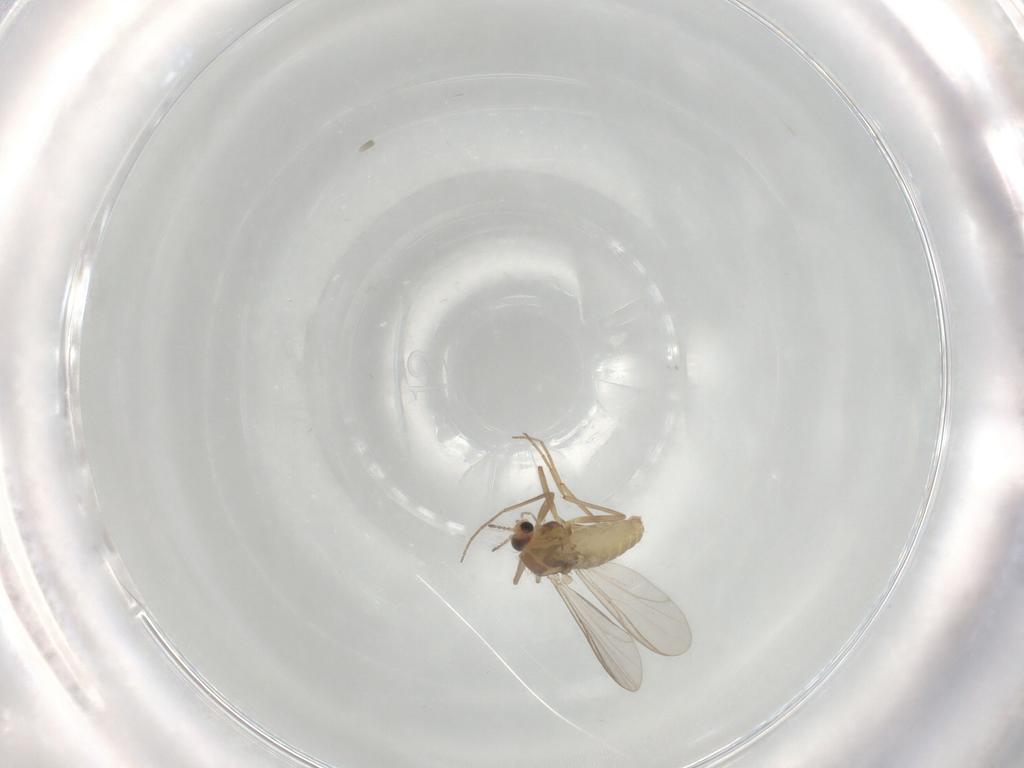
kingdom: Animalia
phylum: Arthropoda
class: Insecta
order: Diptera
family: Chironomidae
